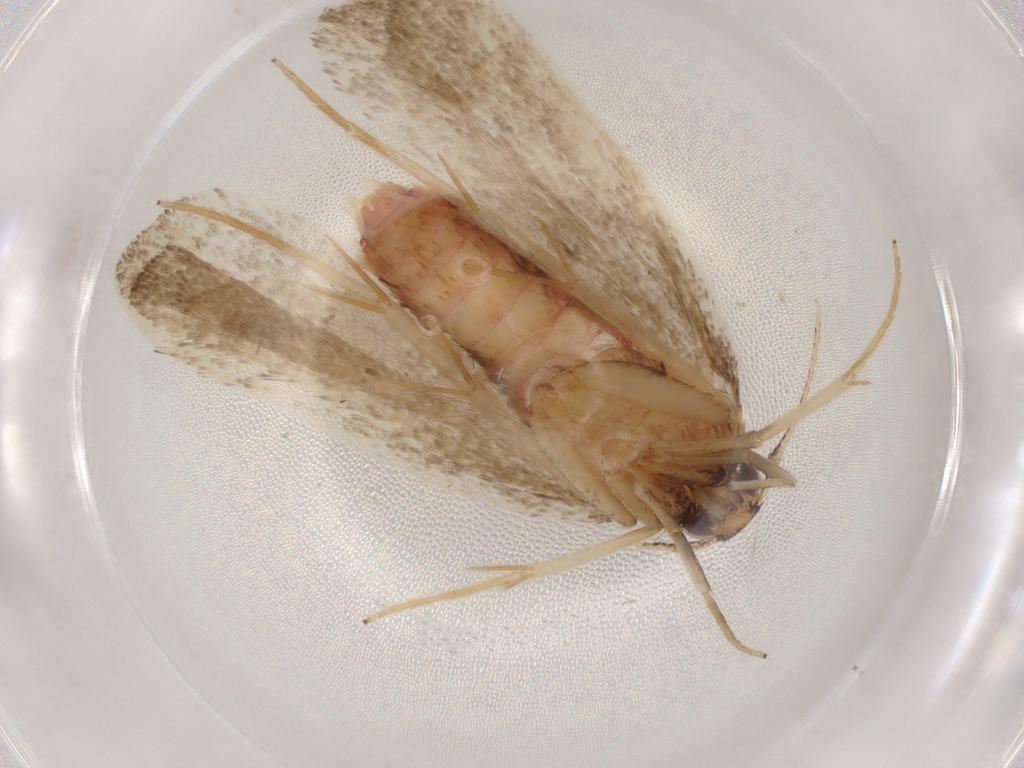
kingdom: Animalia
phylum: Arthropoda
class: Insecta
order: Lepidoptera
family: Lecithoceridae
